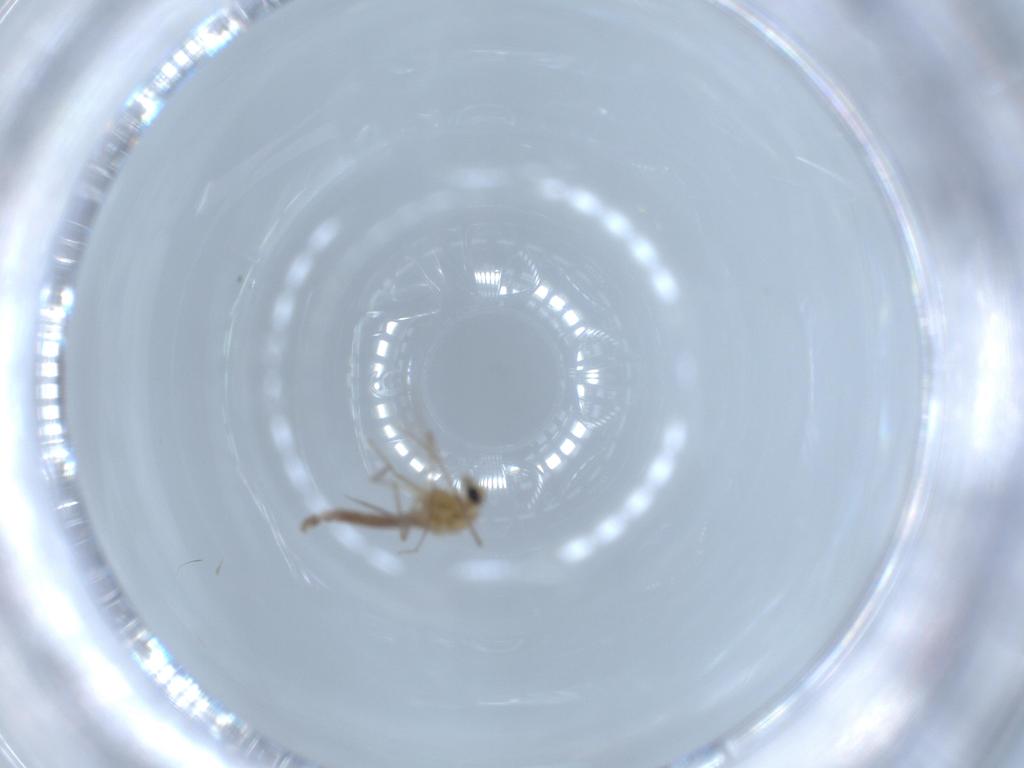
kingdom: Animalia
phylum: Arthropoda
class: Insecta
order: Diptera
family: Chironomidae
